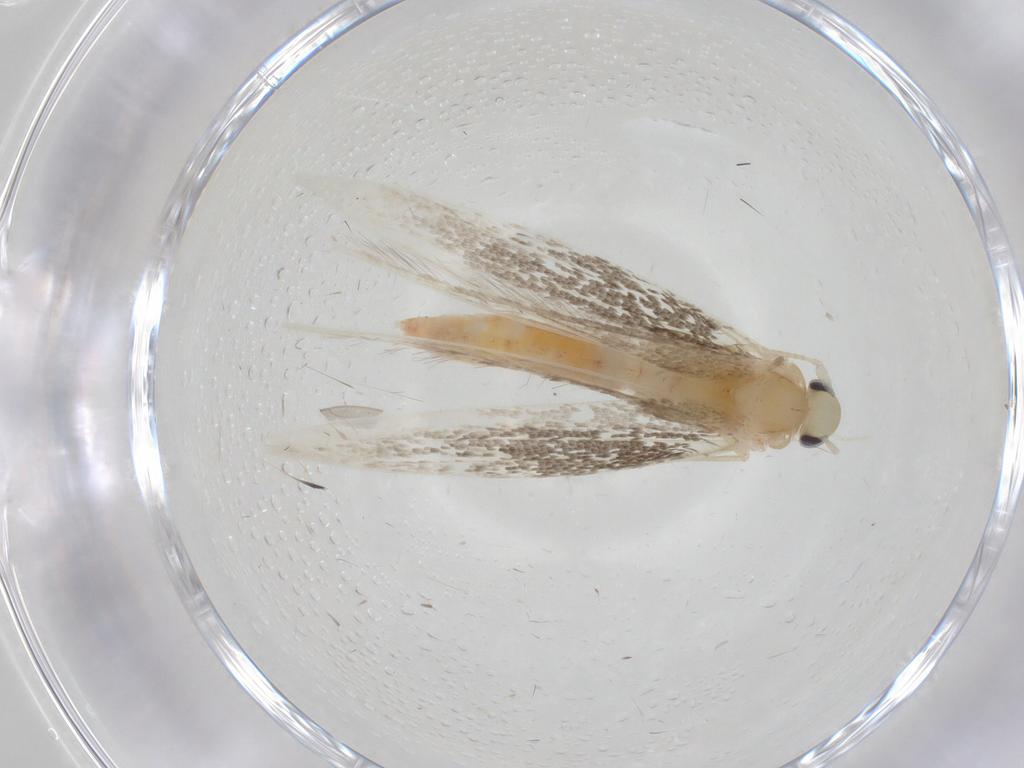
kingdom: Animalia
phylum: Arthropoda
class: Insecta
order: Lepidoptera
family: Gracillariidae
